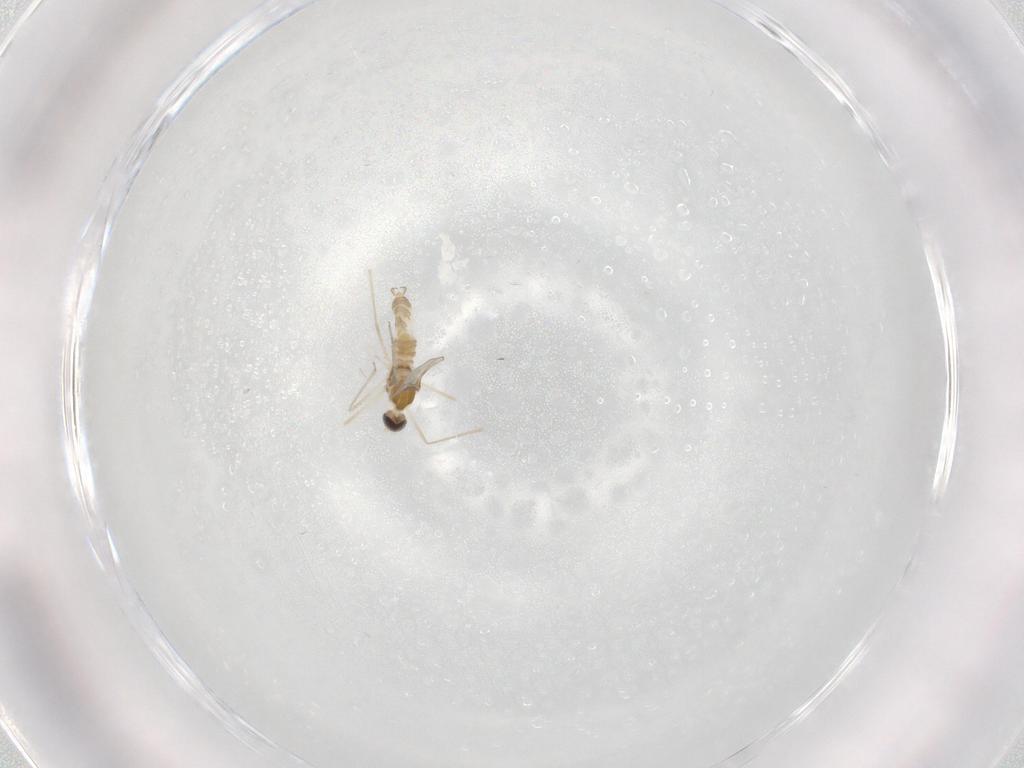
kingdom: Animalia
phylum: Arthropoda
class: Insecta
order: Diptera
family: Cecidomyiidae
